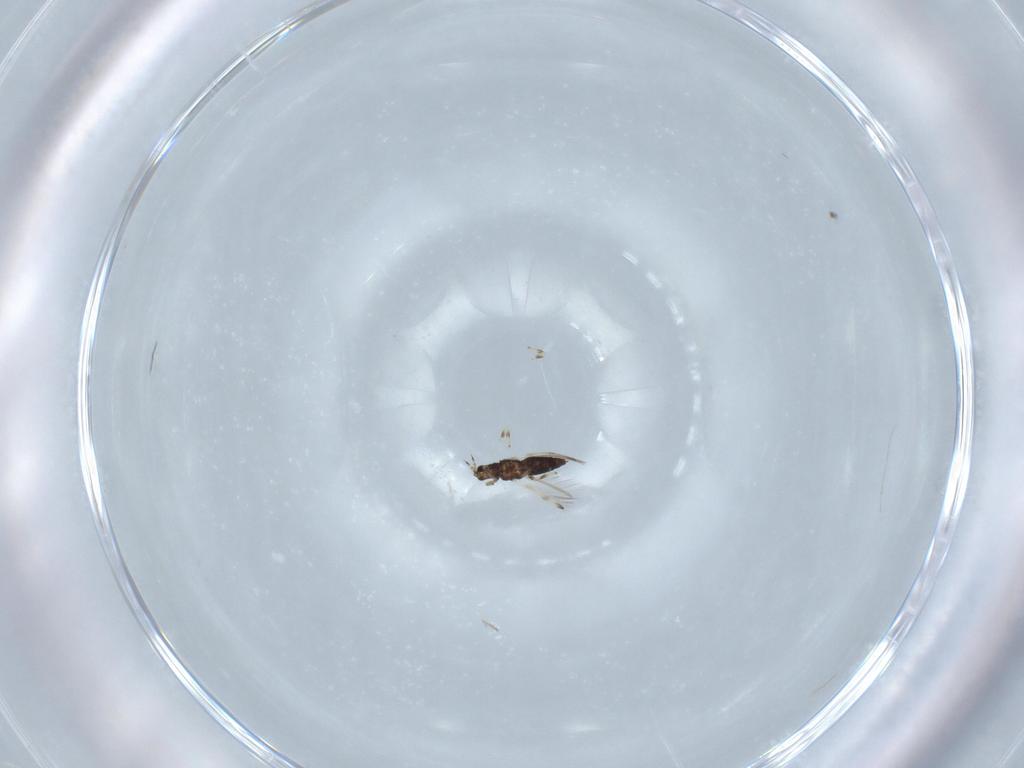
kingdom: Animalia
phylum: Arthropoda
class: Insecta
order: Thysanoptera
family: Thripidae
